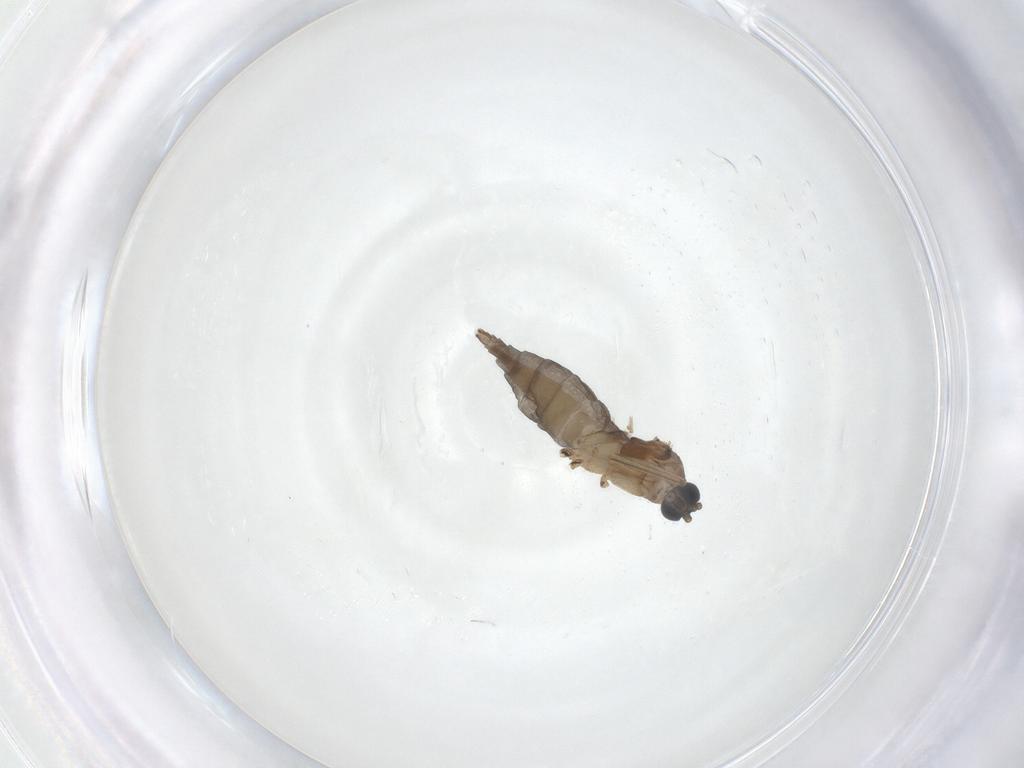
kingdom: Animalia
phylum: Arthropoda
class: Insecta
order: Diptera
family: Sciaridae
